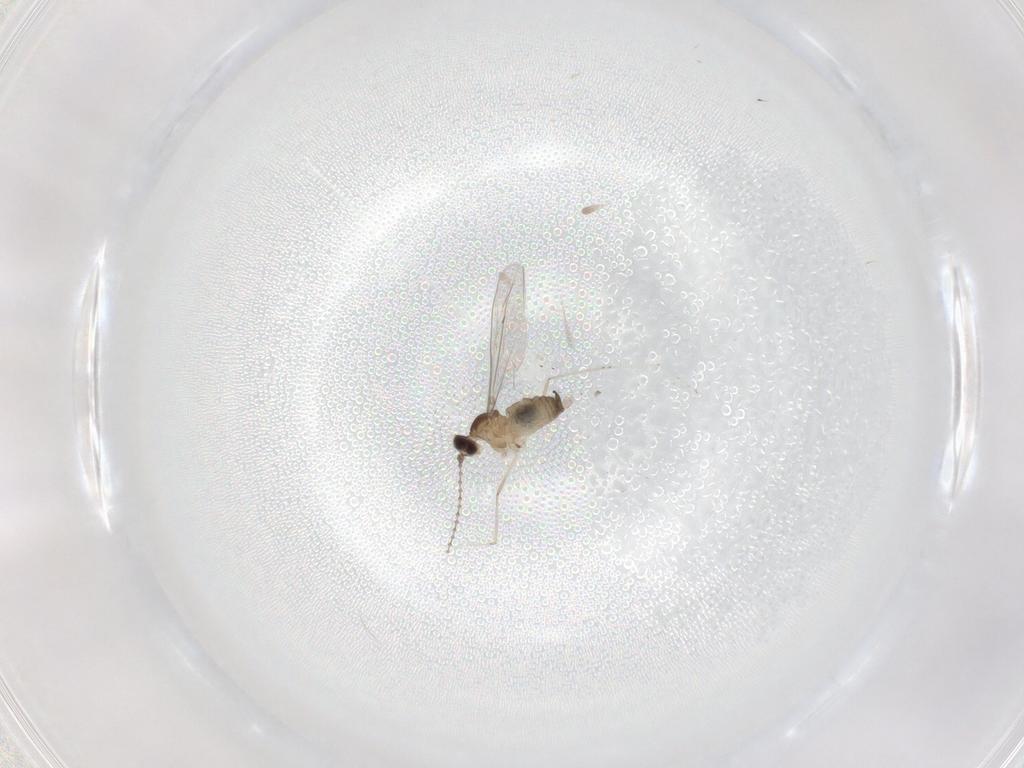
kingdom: Animalia
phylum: Arthropoda
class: Insecta
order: Diptera
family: Cecidomyiidae
